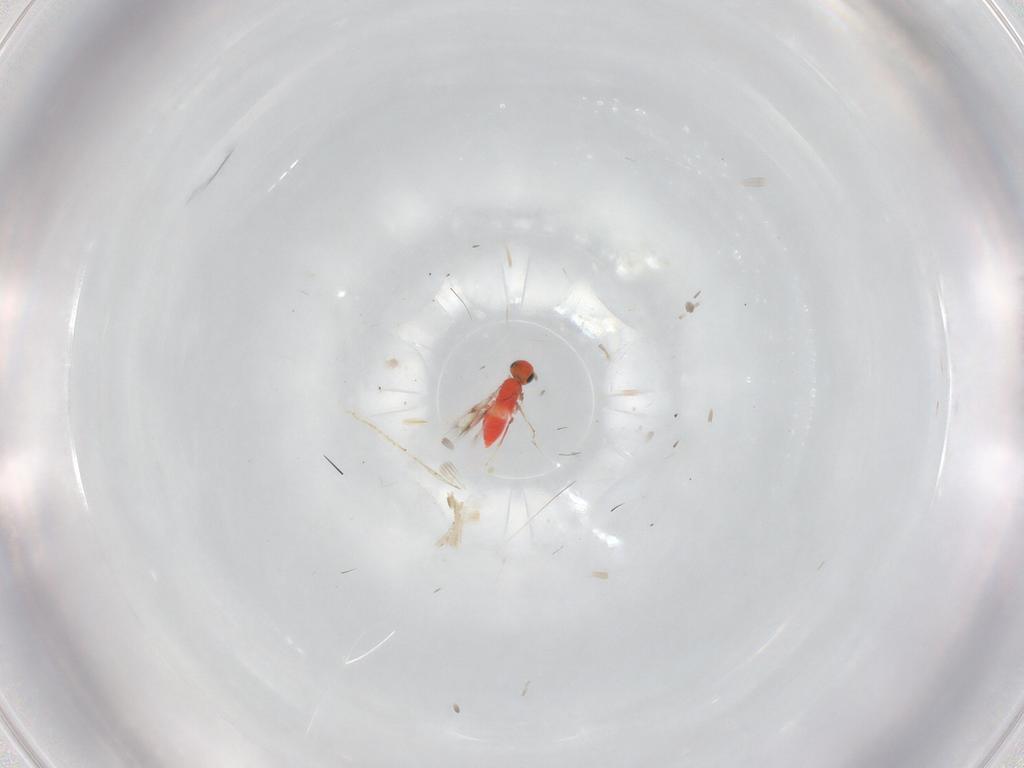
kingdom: Animalia
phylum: Arthropoda
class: Insecta
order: Hymenoptera
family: Trichogrammatidae
